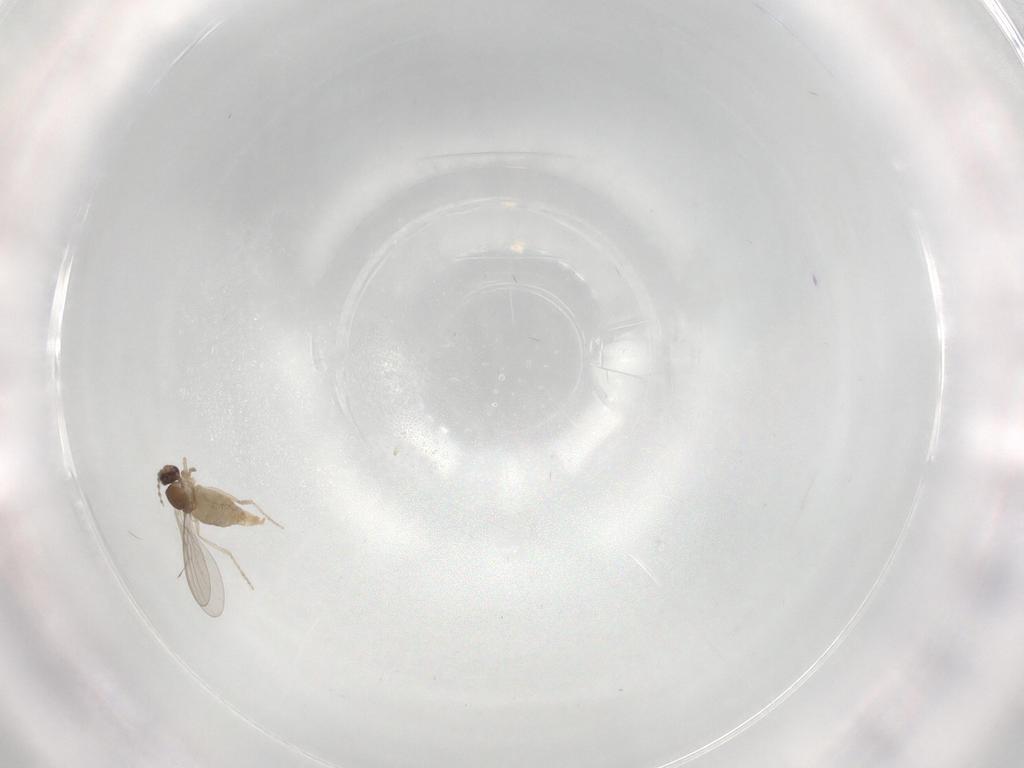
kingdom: Animalia
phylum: Arthropoda
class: Insecta
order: Diptera
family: Cecidomyiidae
